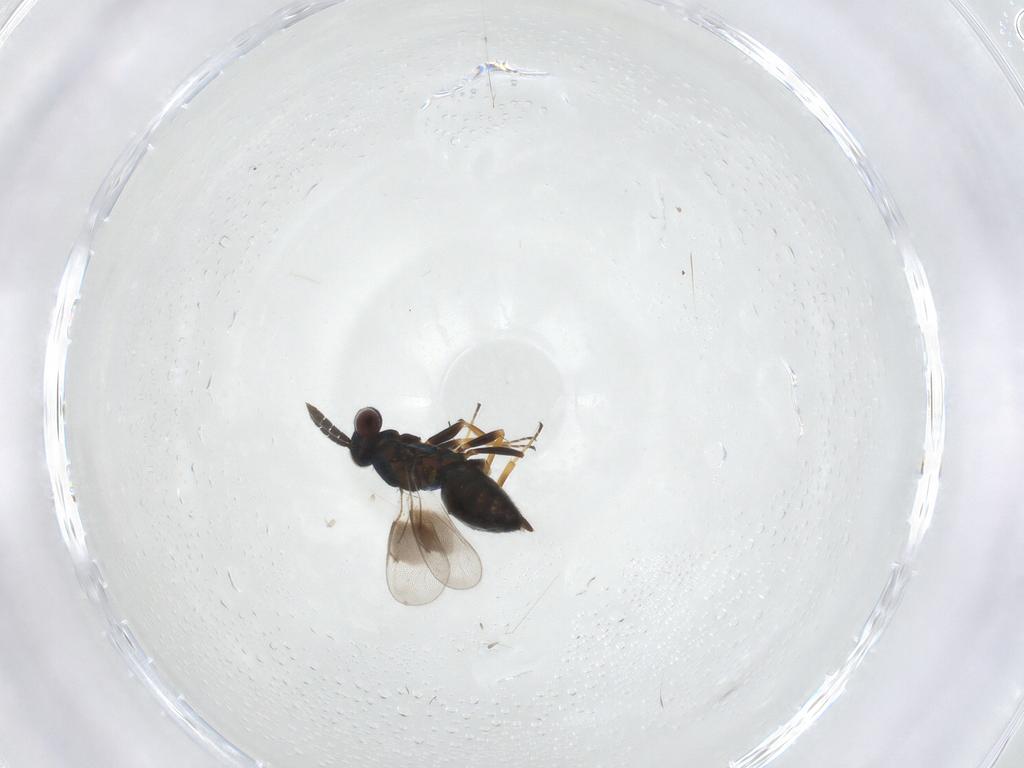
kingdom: Animalia
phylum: Arthropoda
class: Insecta
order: Hymenoptera
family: Eulophidae
